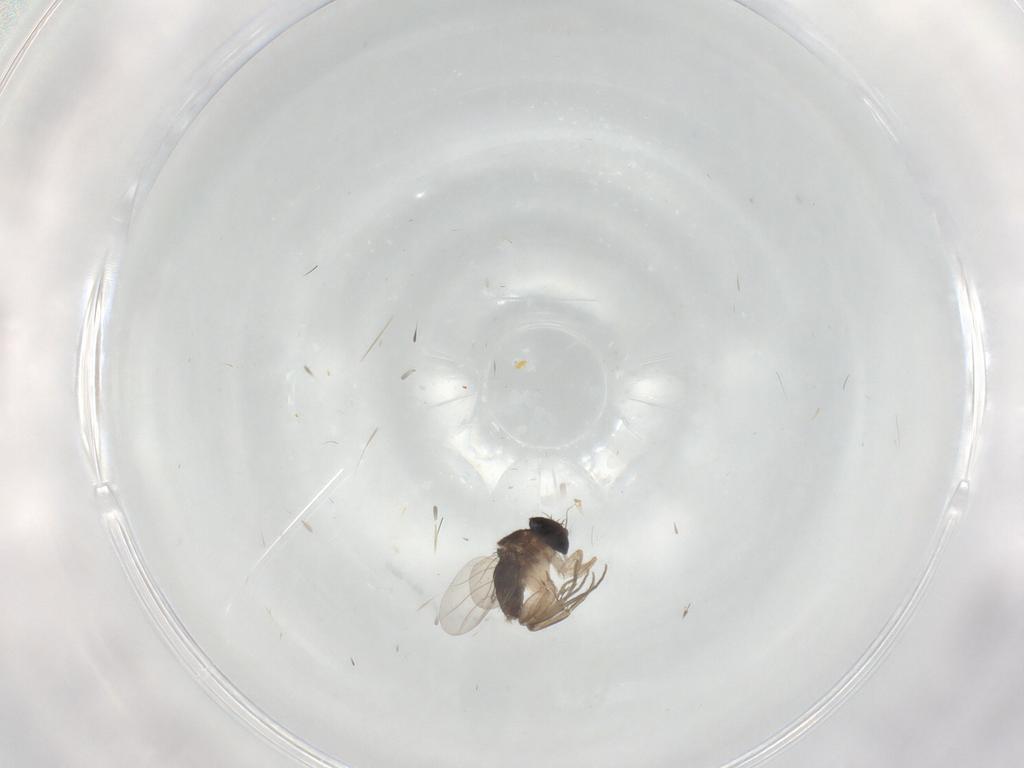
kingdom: Animalia
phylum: Arthropoda
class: Insecta
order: Diptera
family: Phoridae
